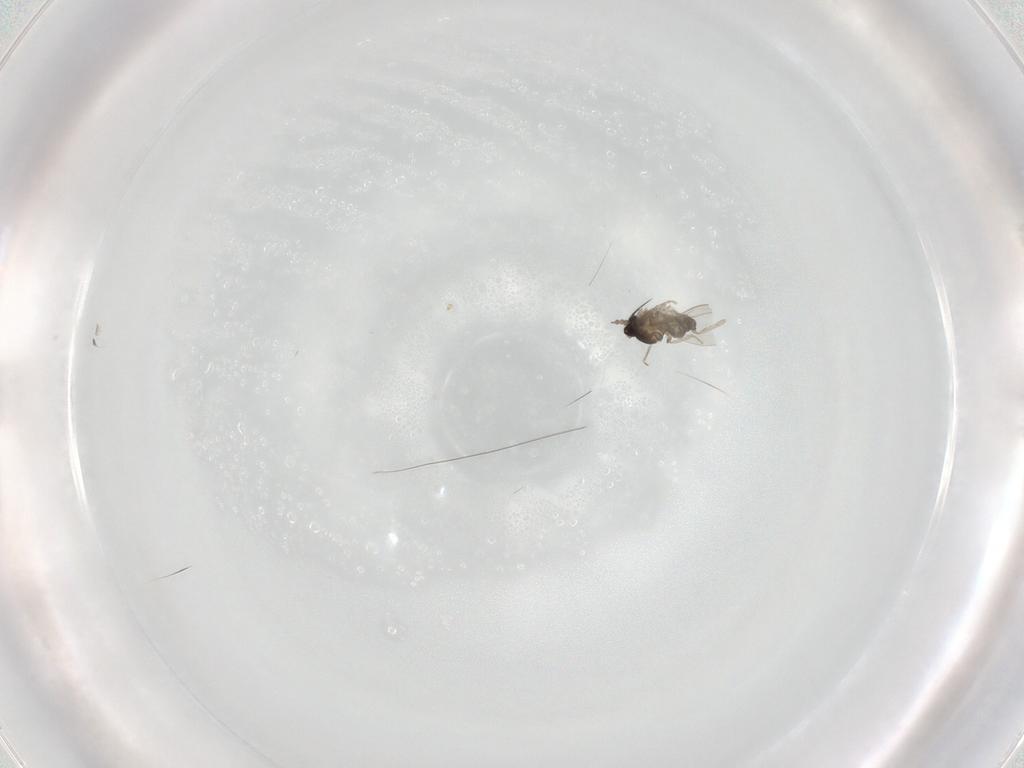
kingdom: Animalia
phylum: Arthropoda
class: Insecta
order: Diptera
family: Cecidomyiidae
